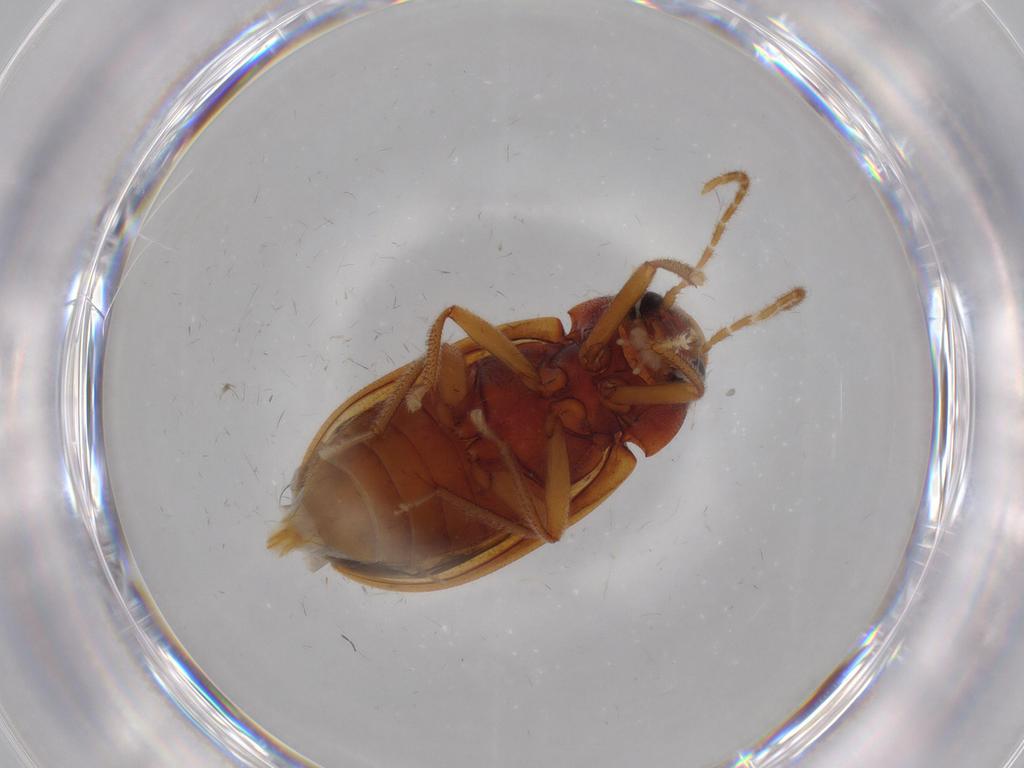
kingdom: Animalia
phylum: Arthropoda
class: Insecta
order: Coleoptera
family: Ptilodactylidae
